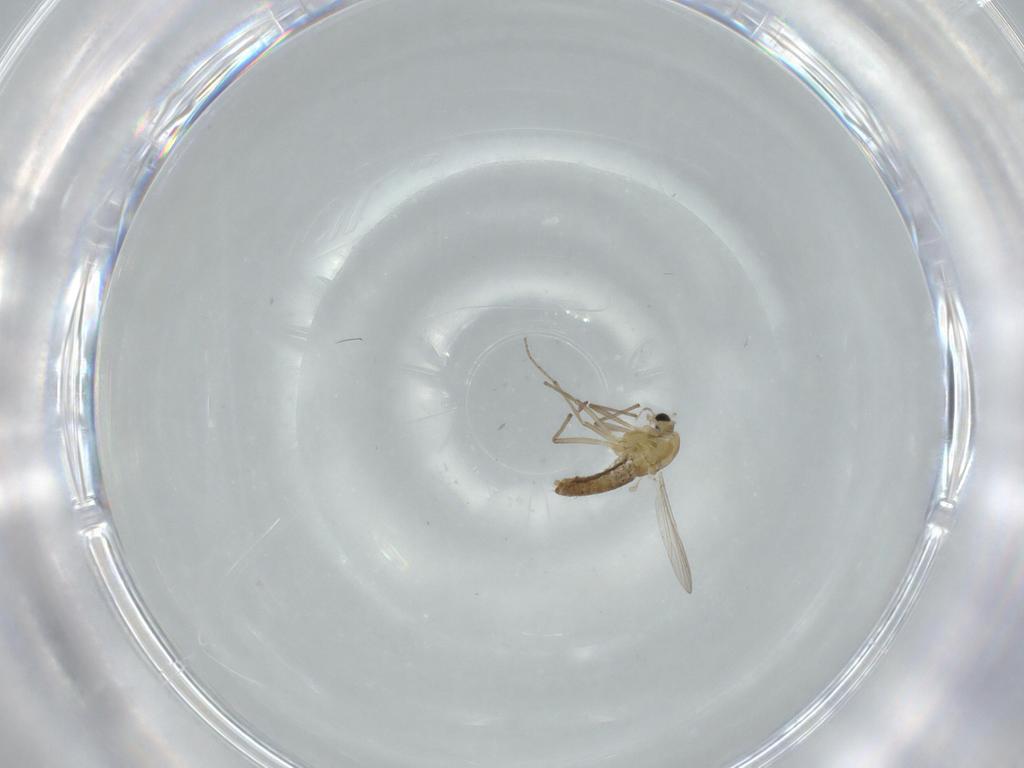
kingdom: Animalia
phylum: Arthropoda
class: Insecta
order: Diptera
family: Chironomidae
